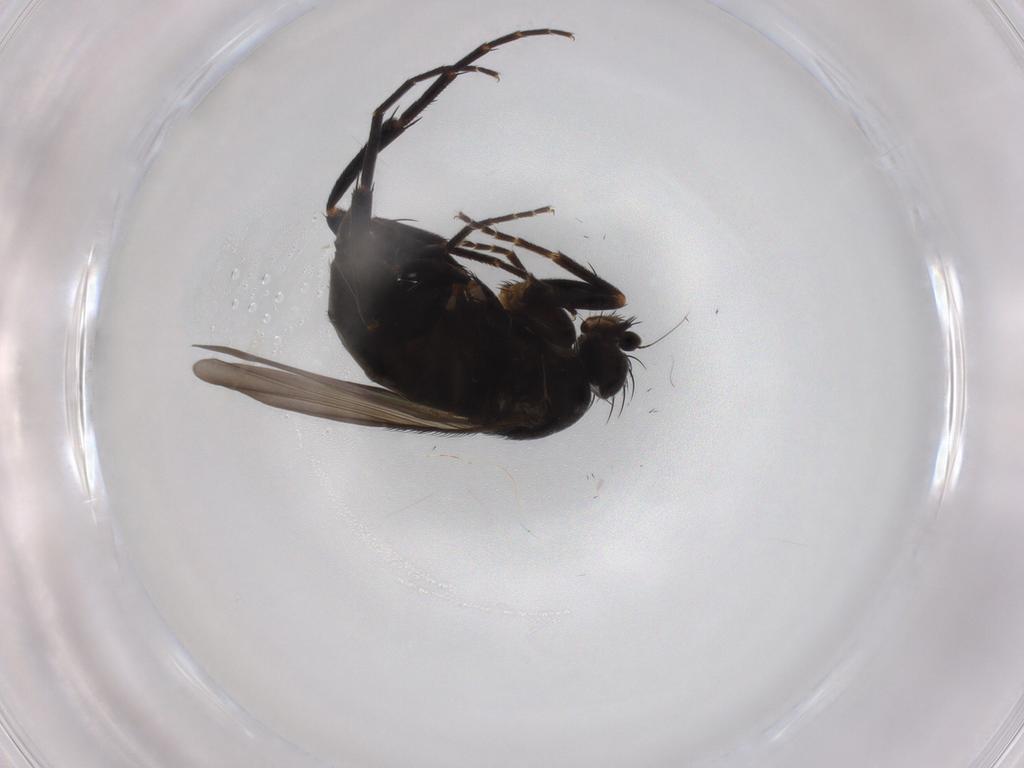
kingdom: Animalia
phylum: Arthropoda
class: Insecta
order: Diptera
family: Phoridae
